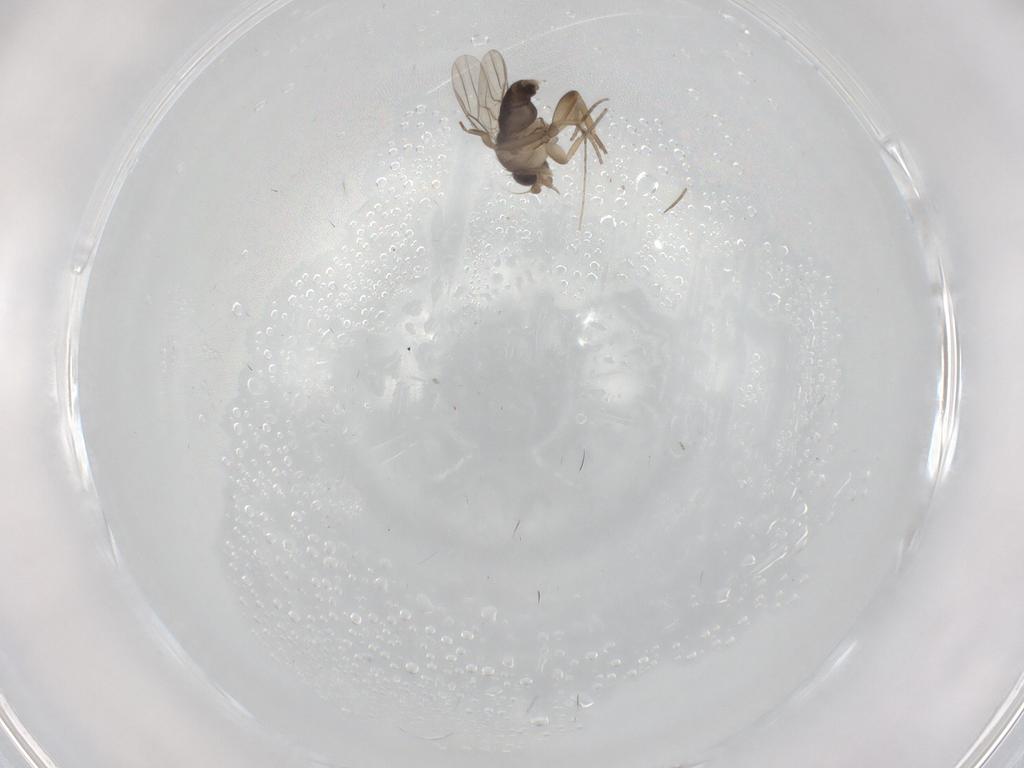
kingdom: Animalia
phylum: Arthropoda
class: Insecta
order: Diptera
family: Phoridae
